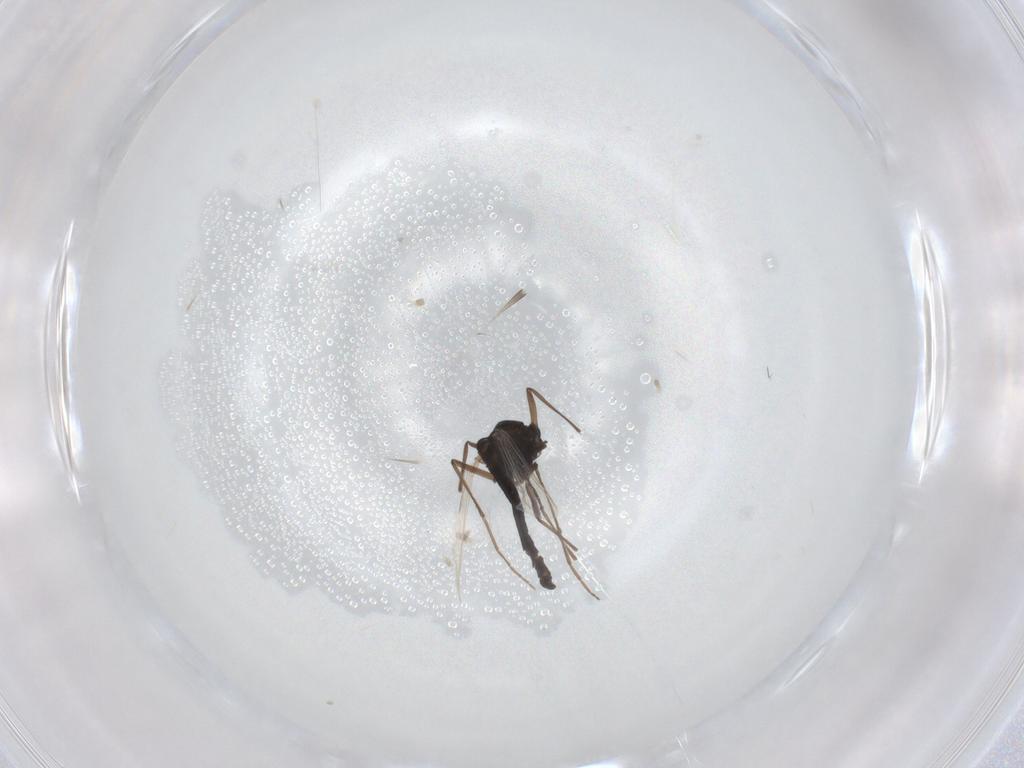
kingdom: Animalia
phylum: Arthropoda
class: Insecta
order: Diptera
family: Chironomidae
